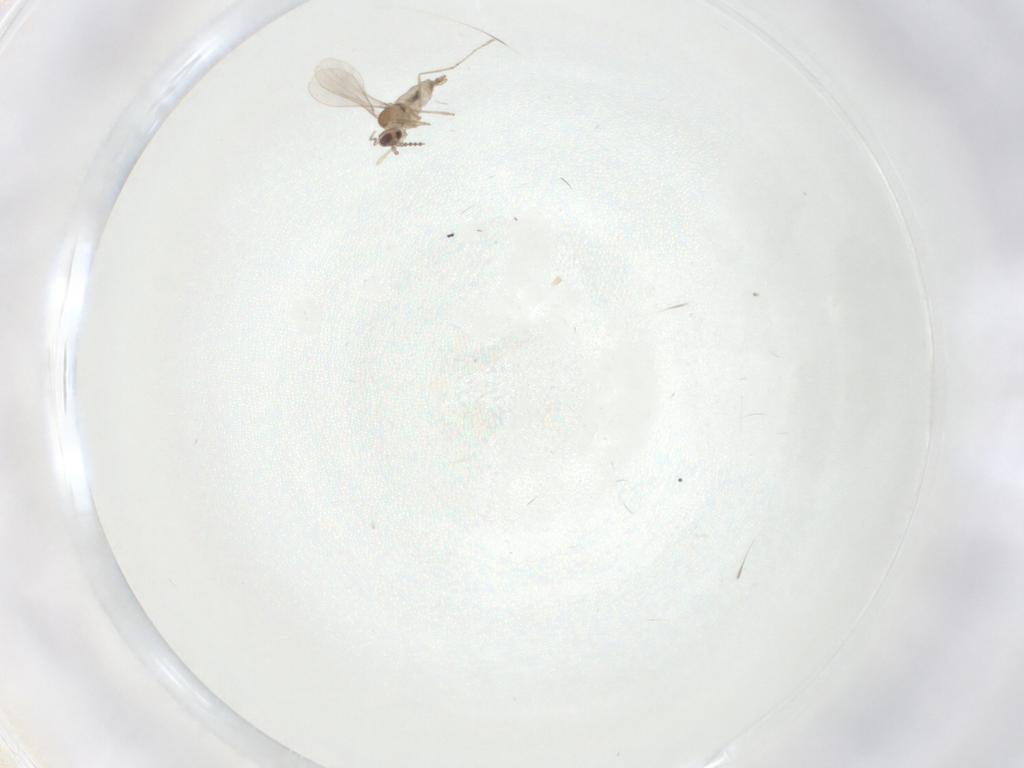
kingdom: Animalia
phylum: Arthropoda
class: Insecta
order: Diptera
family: Cecidomyiidae
